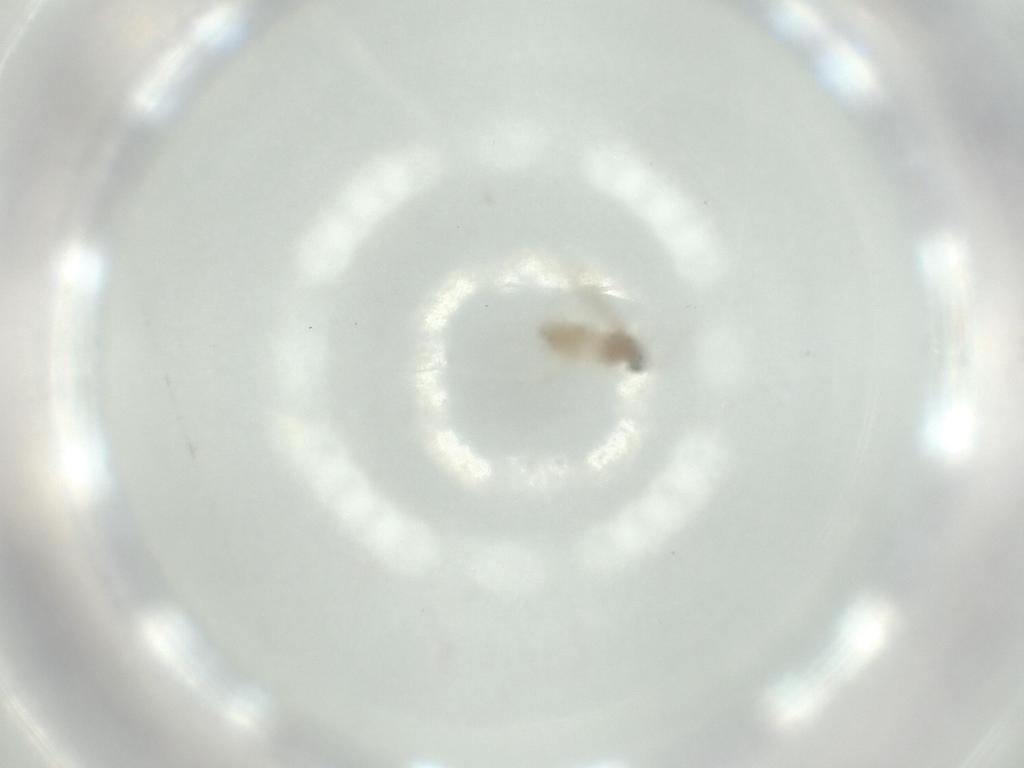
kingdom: Animalia
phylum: Arthropoda
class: Insecta
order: Diptera
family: Cecidomyiidae
